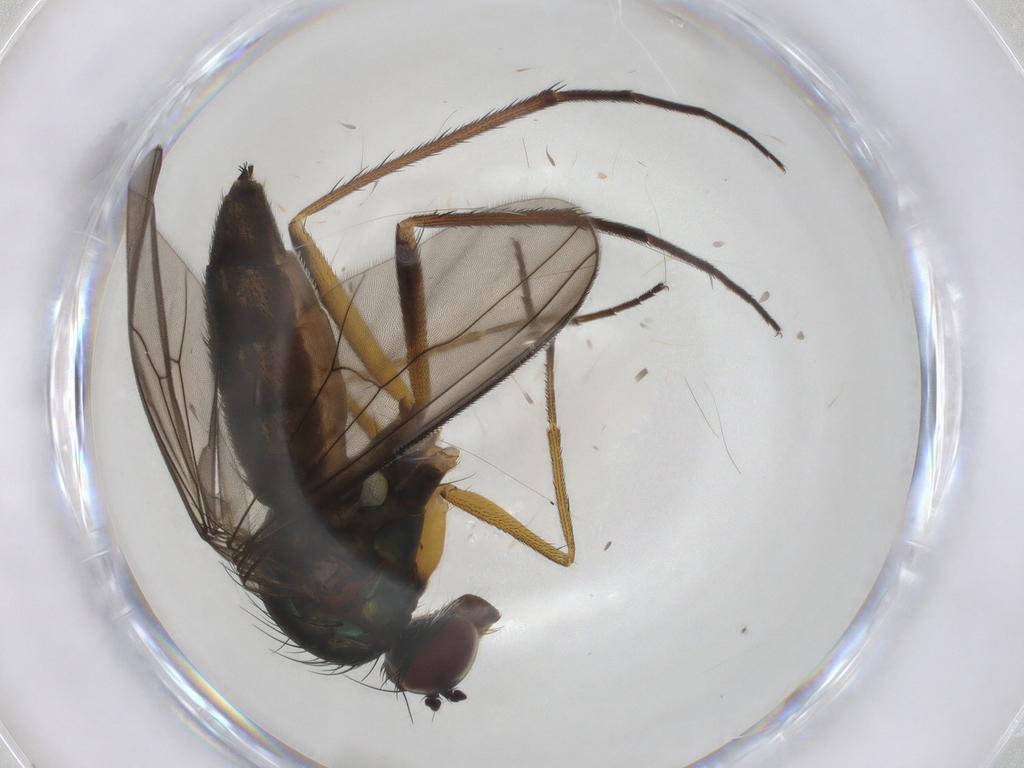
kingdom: Animalia
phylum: Arthropoda
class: Insecta
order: Diptera
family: Dolichopodidae
